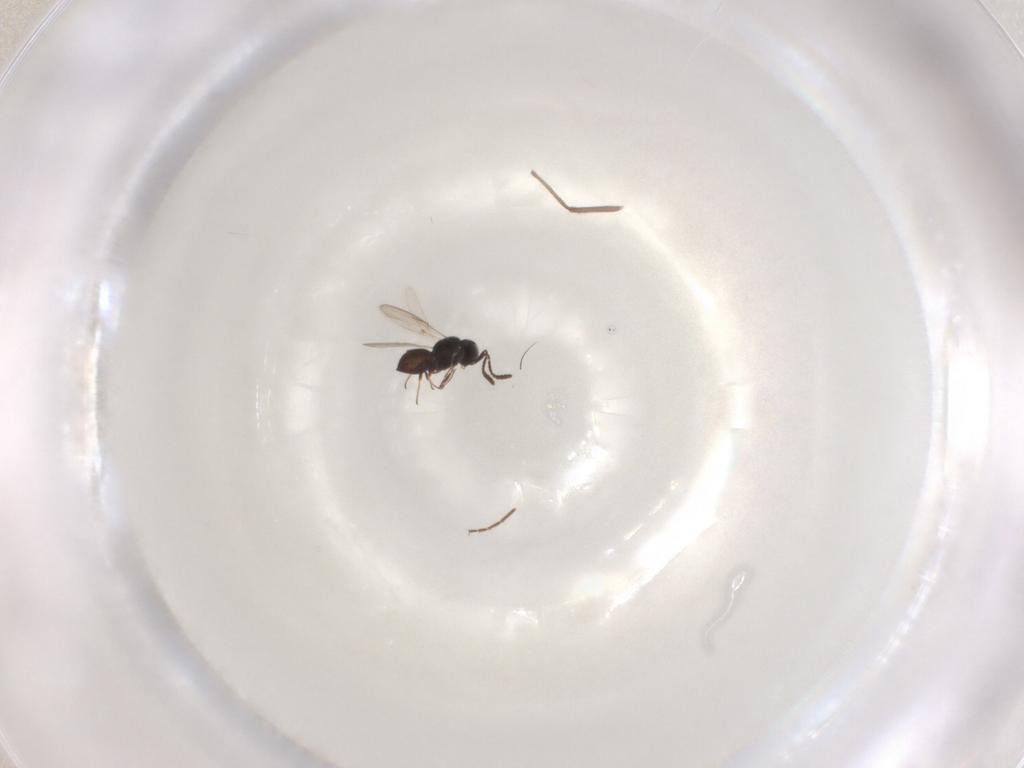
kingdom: Animalia
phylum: Arthropoda
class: Insecta
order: Hymenoptera
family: Scelionidae
